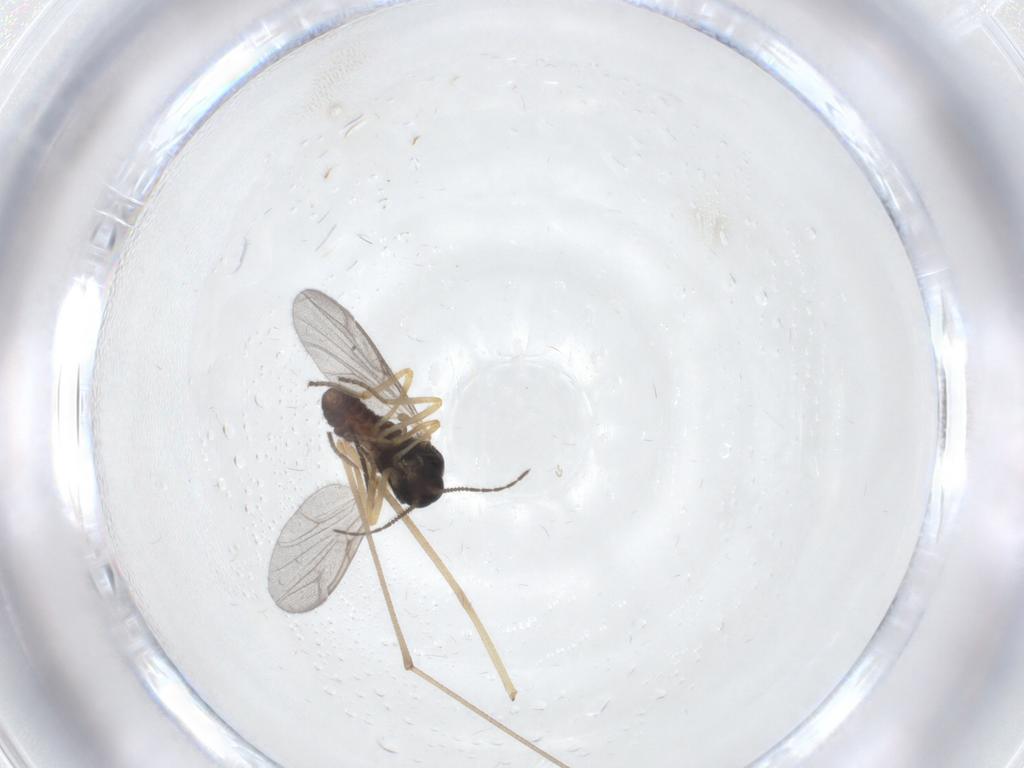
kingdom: Animalia
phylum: Arthropoda
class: Insecta
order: Diptera
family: Ceratopogonidae
